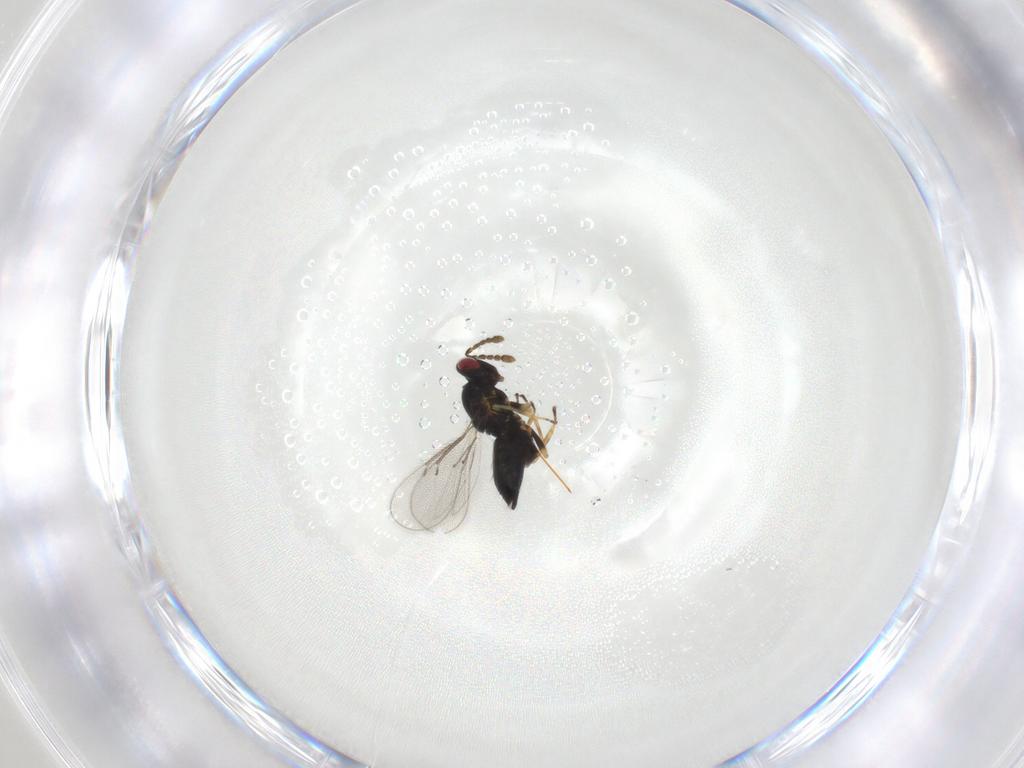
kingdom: Animalia
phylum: Arthropoda
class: Insecta
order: Hymenoptera
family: Eulophidae
